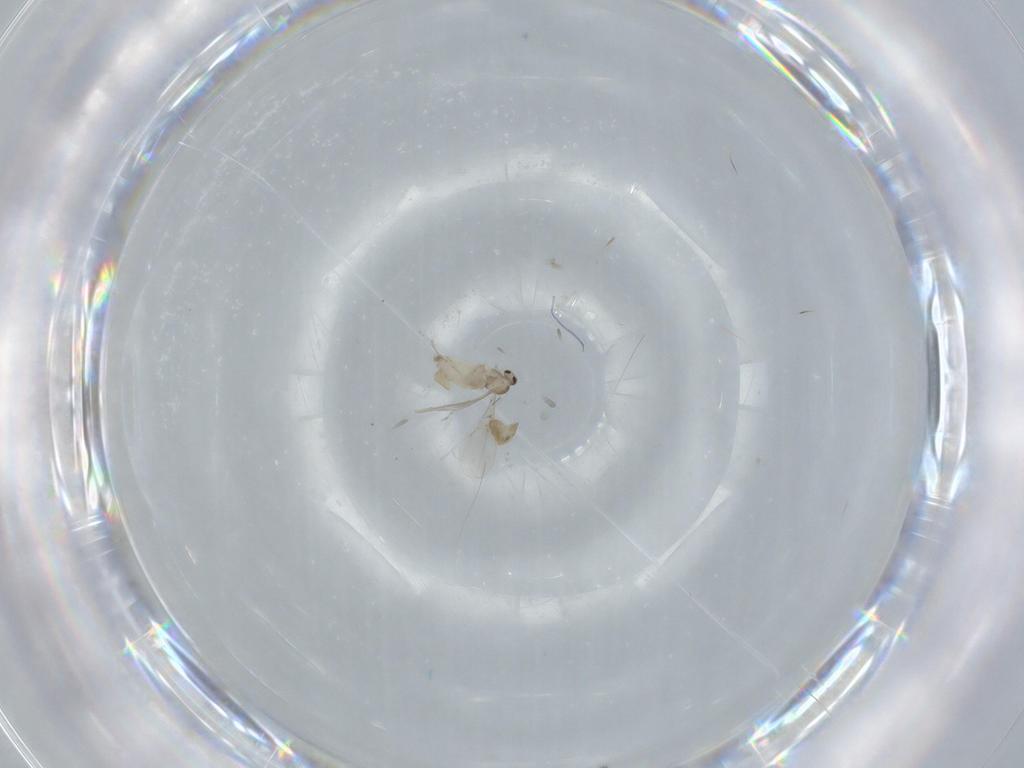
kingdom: Animalia
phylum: Arthropoda
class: Insecta
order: Diptera
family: Cecidomyiidae
